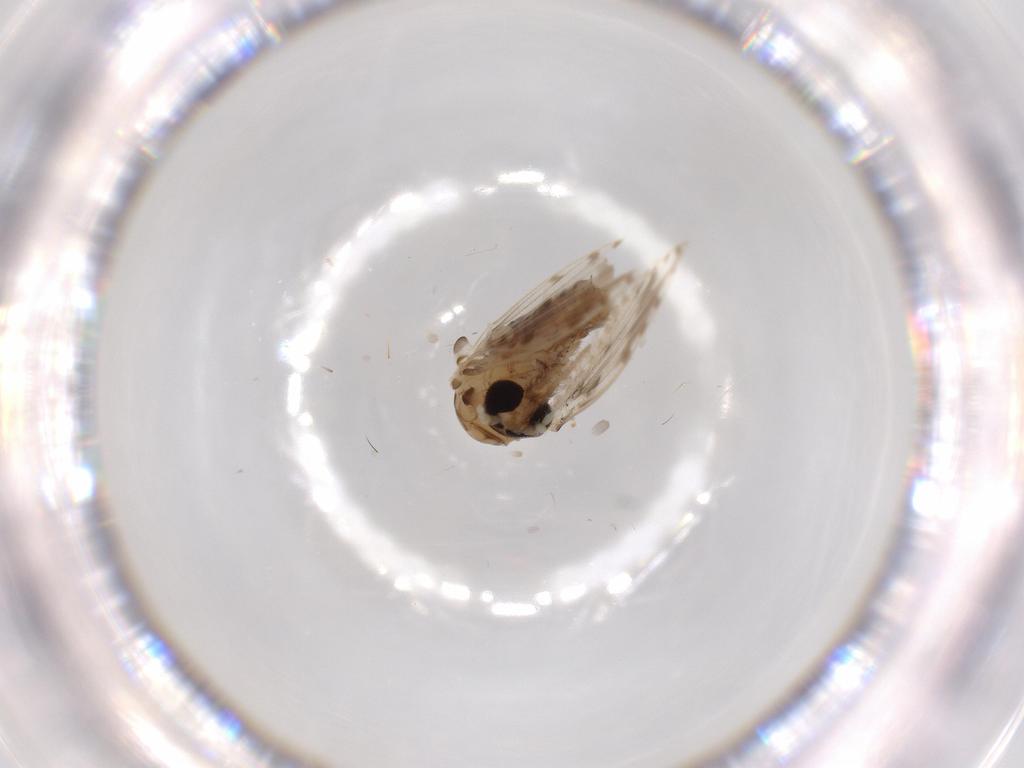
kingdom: Animalia
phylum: Arthropoda
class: Insecta
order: Diptera
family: Cecidomyiidae
